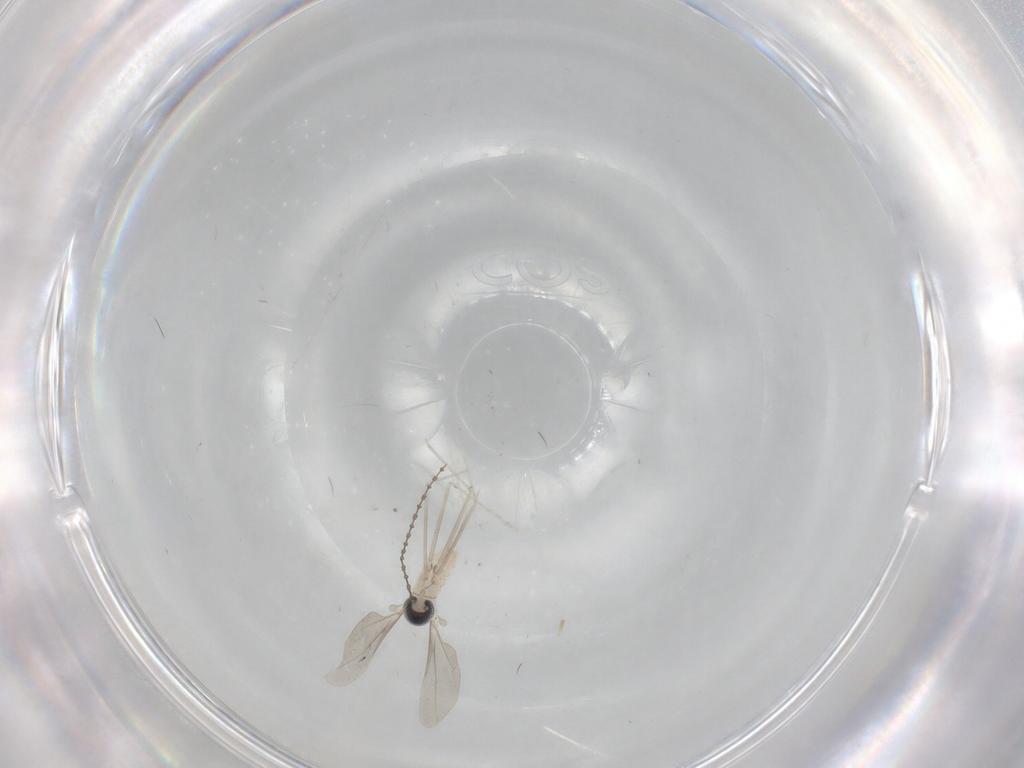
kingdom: Animalia
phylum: Arthropoda
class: Insecta
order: Diptera
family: Cecidomyiidae
